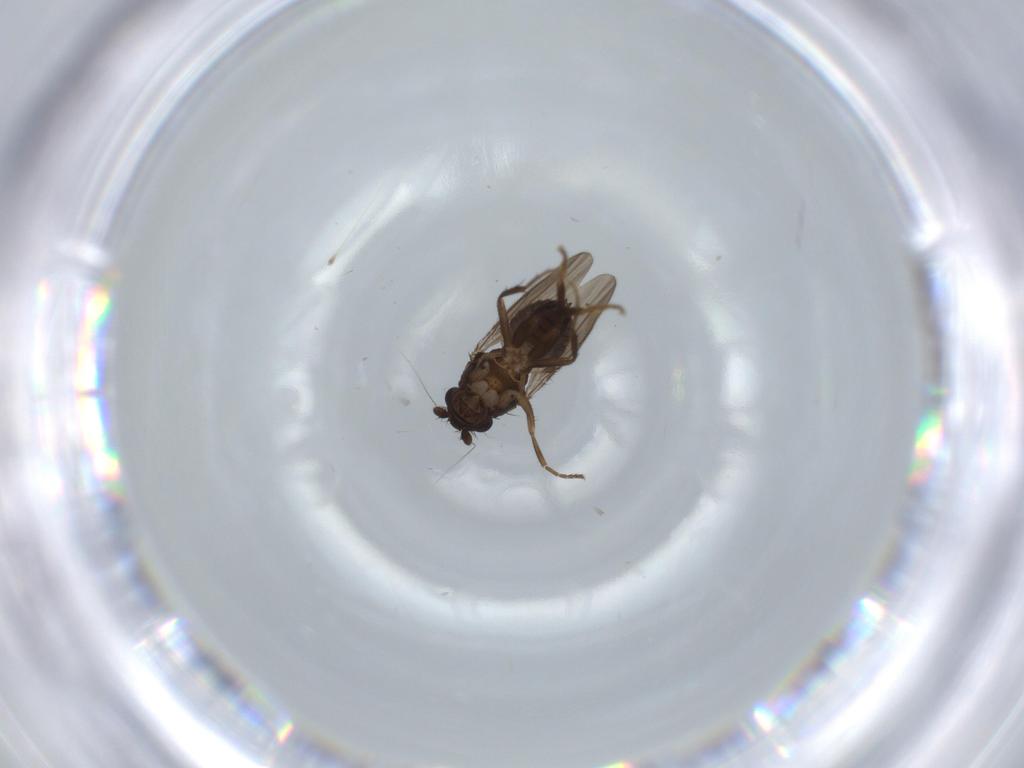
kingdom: Animalia
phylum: Arthropoda
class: Insecta
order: Diptera
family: Sphaeroceridae
